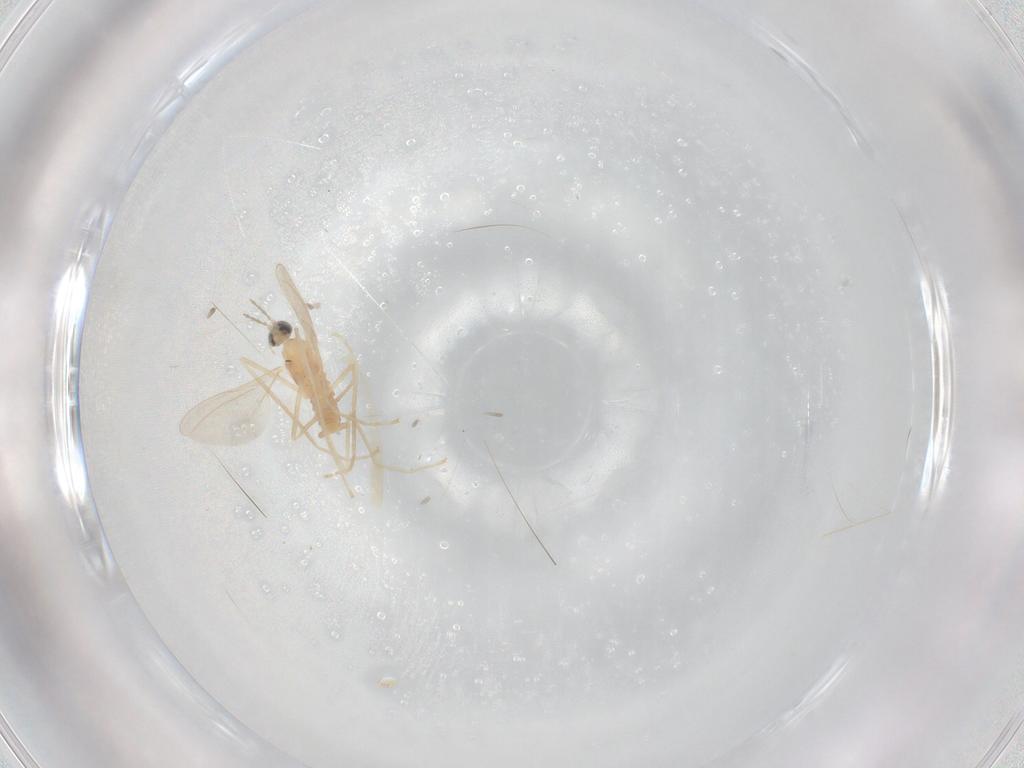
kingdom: Animalia
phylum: Arthropoda
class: Insecta
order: Diptera
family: Cecidomyiidae
